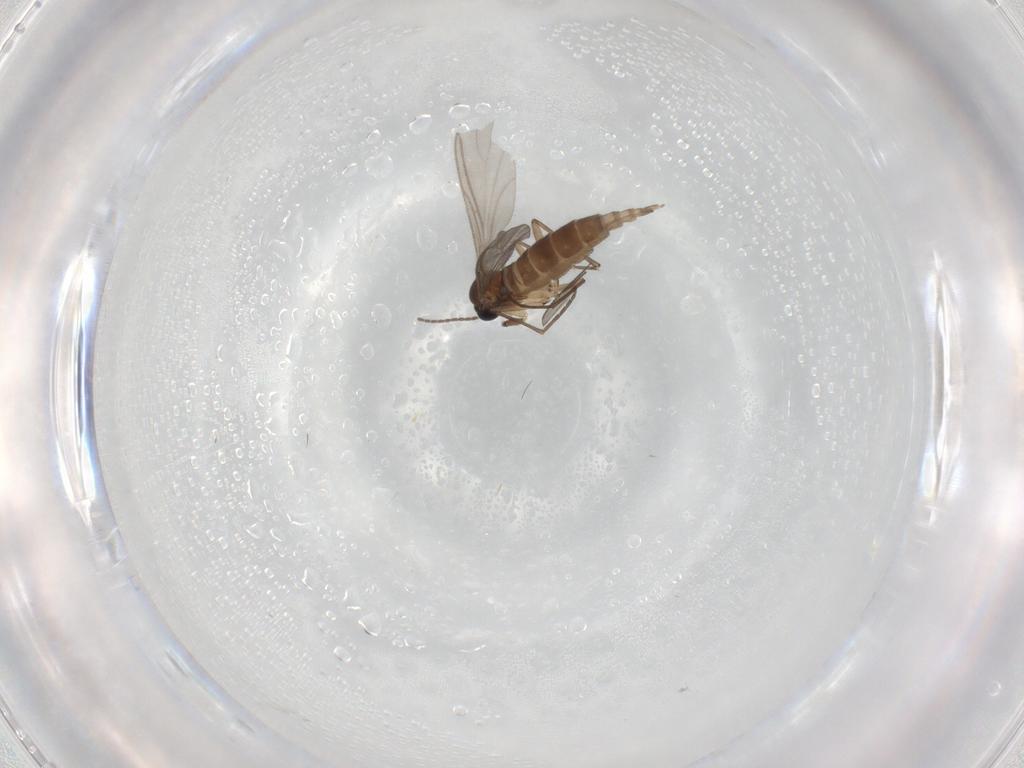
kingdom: Animalia
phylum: Arthropoda
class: Insecta
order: Diptera
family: Sciaridae
